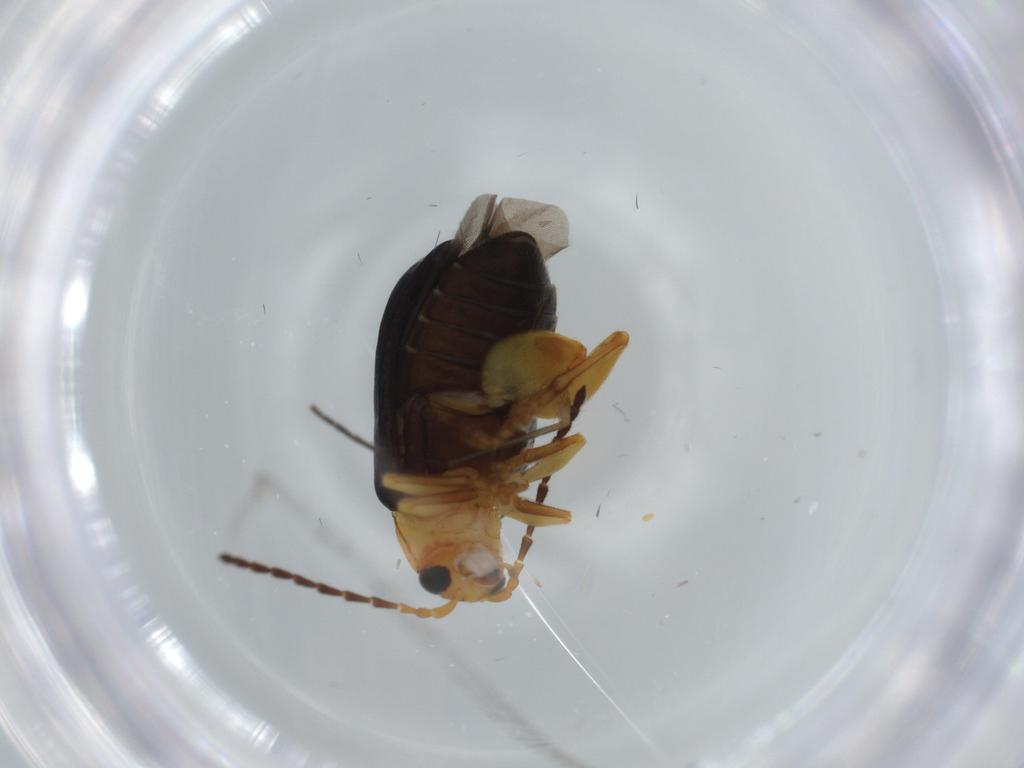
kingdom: Animalia
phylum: Arthropoda
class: Insecta
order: Coleoptera
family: Chrysomelidae
